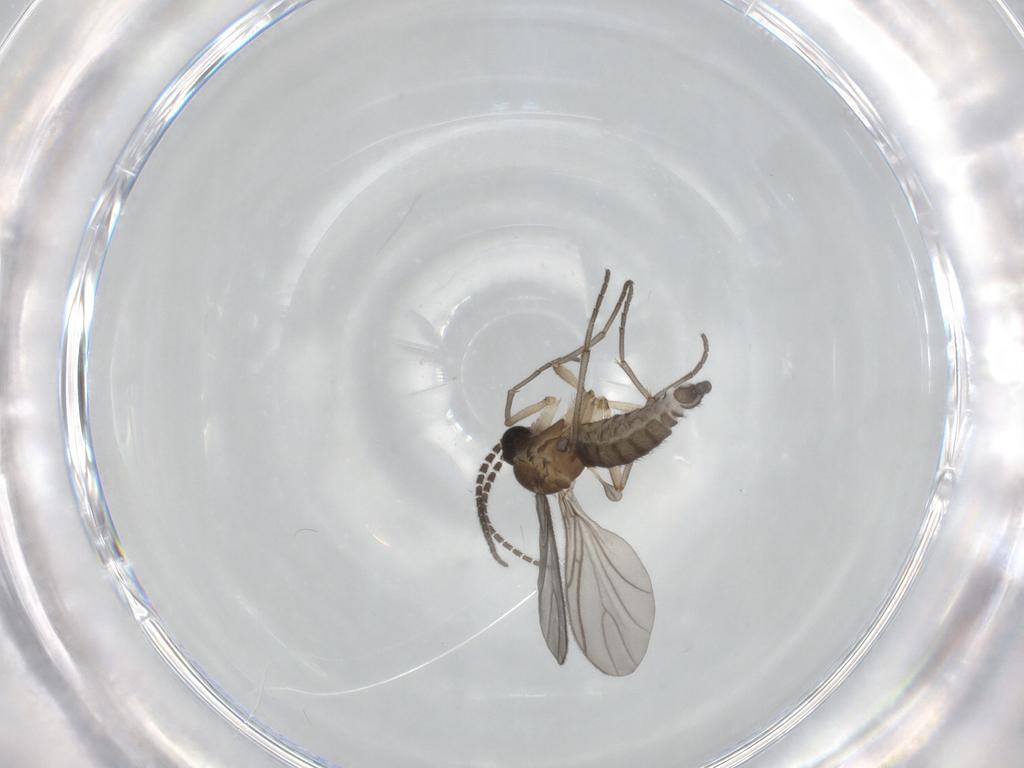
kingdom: Animalia
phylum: Arthropoda
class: Insecta
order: Diptera
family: Sciaridae
